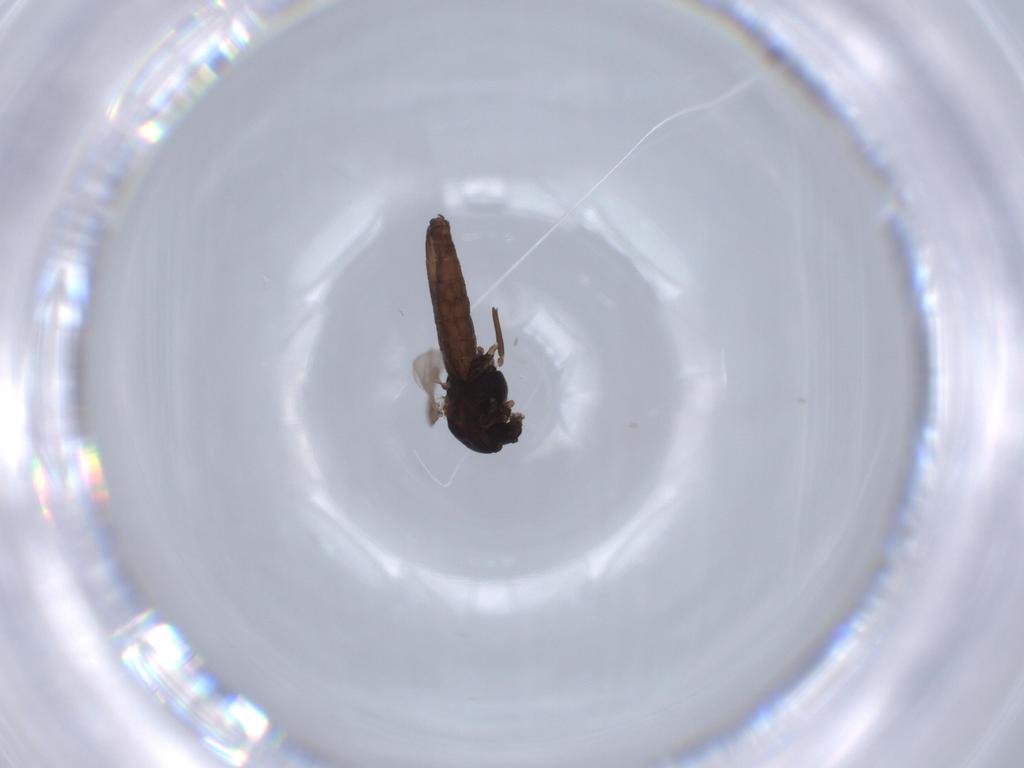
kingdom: Animalia
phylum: Arthropoda
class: Insecta
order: Diptera
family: Chironomidae
